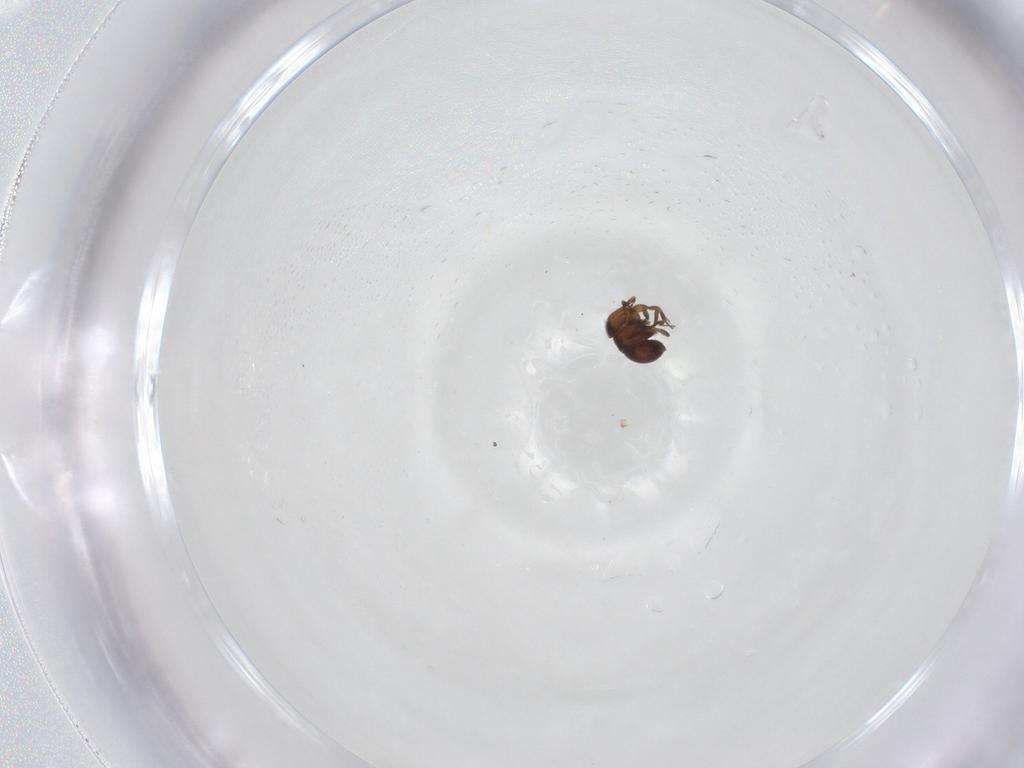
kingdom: Animalia
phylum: Arthropoda
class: Insecta
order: Hymenoptera
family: Scelionidae
